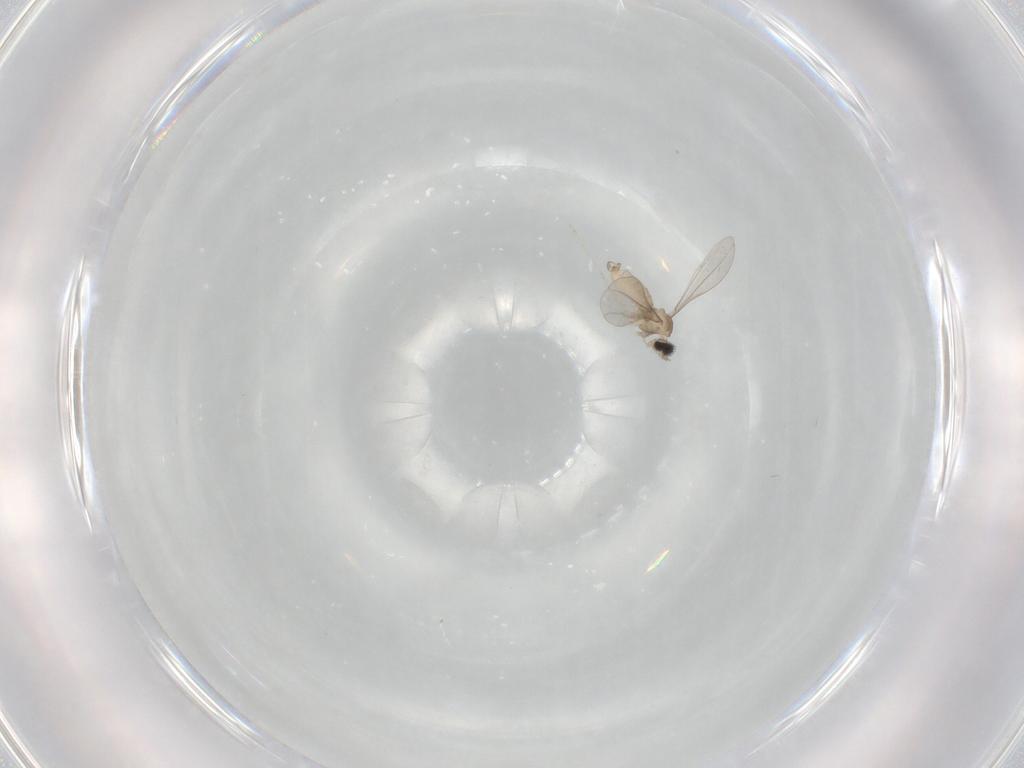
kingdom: Animalia
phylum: Arthropoda
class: Insecta
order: Diptera
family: Cecidomyiidae
